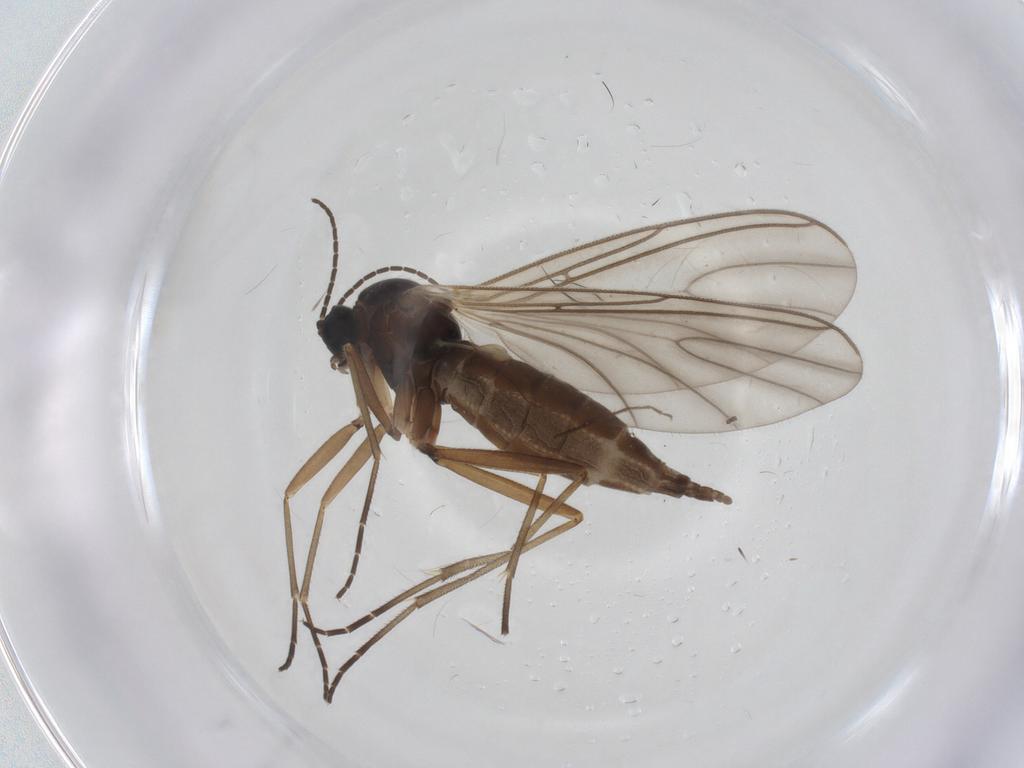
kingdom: Animalia
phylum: Arthropoda
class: Insecta
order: Diptera
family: Sciaridae
